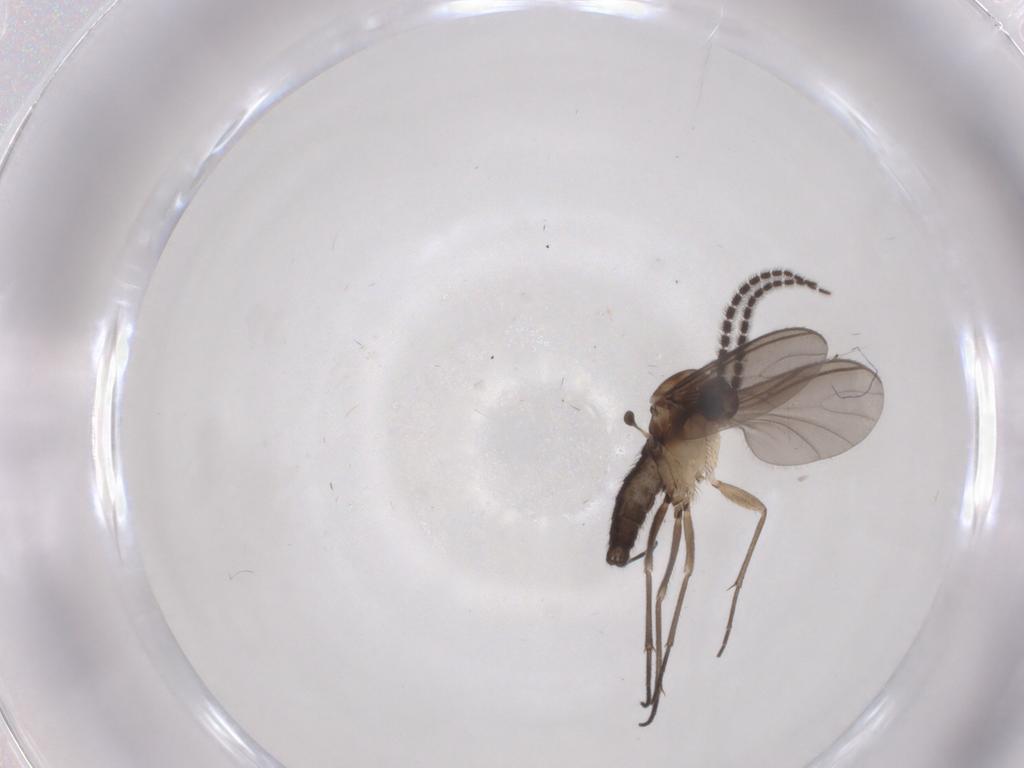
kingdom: Animalia
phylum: Arthropoda
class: Insecta
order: Diptera
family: Sciaridae
